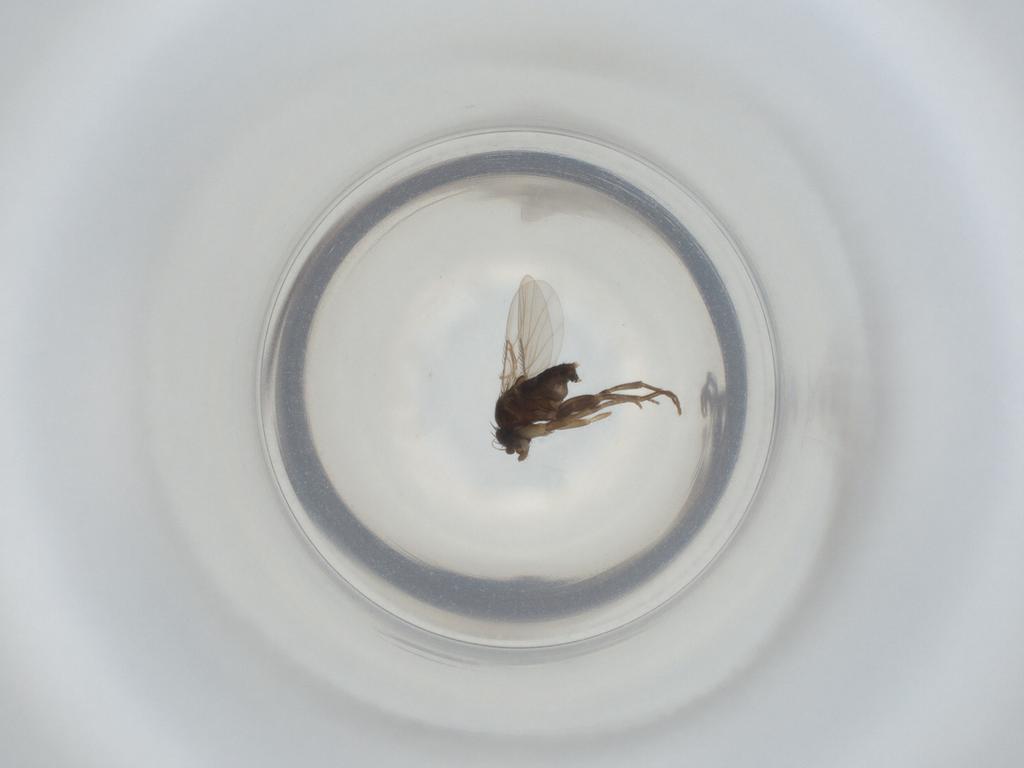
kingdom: Animalia
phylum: Arthropoda
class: Insecta
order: Diptera
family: Phoridae
